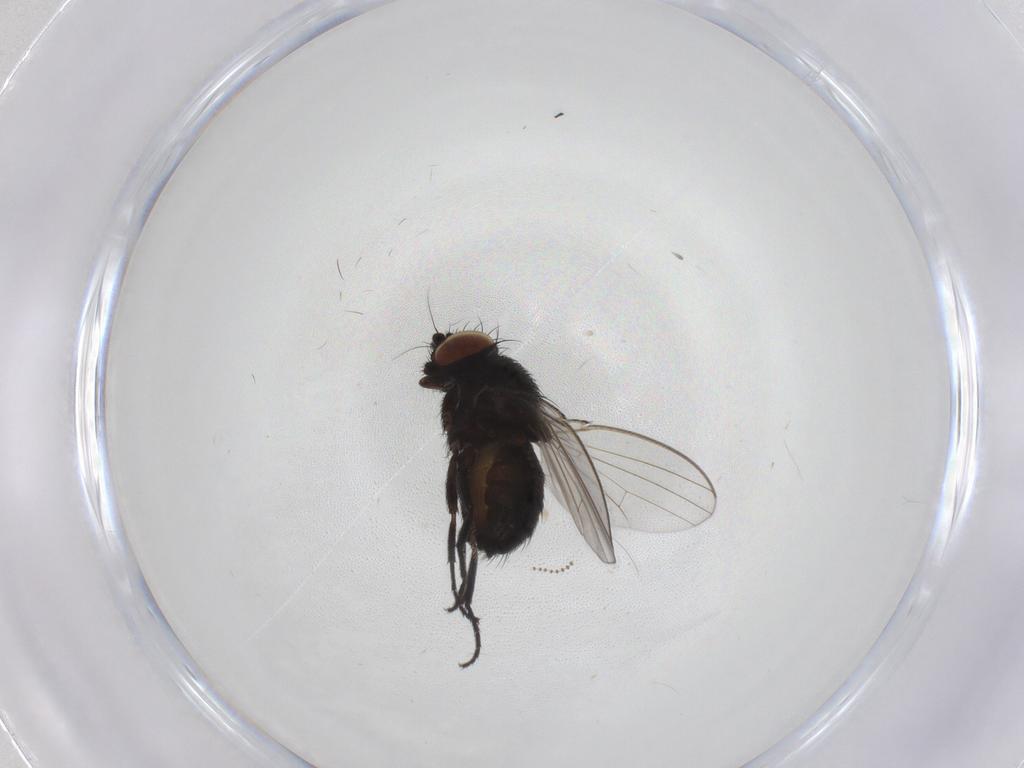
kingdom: Animalia
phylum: Arthropoda
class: Insecta
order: Diptera
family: Milichiidae
